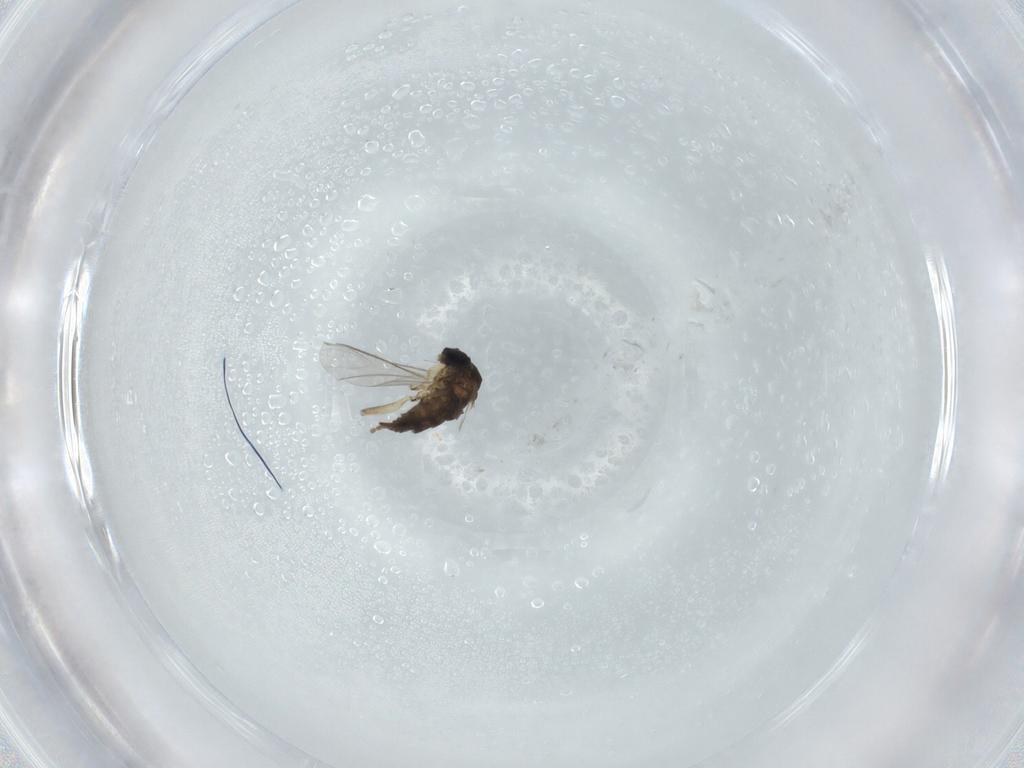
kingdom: Animalia
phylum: Arthropoda
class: Insecta
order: Diptera
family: Sciaridae
